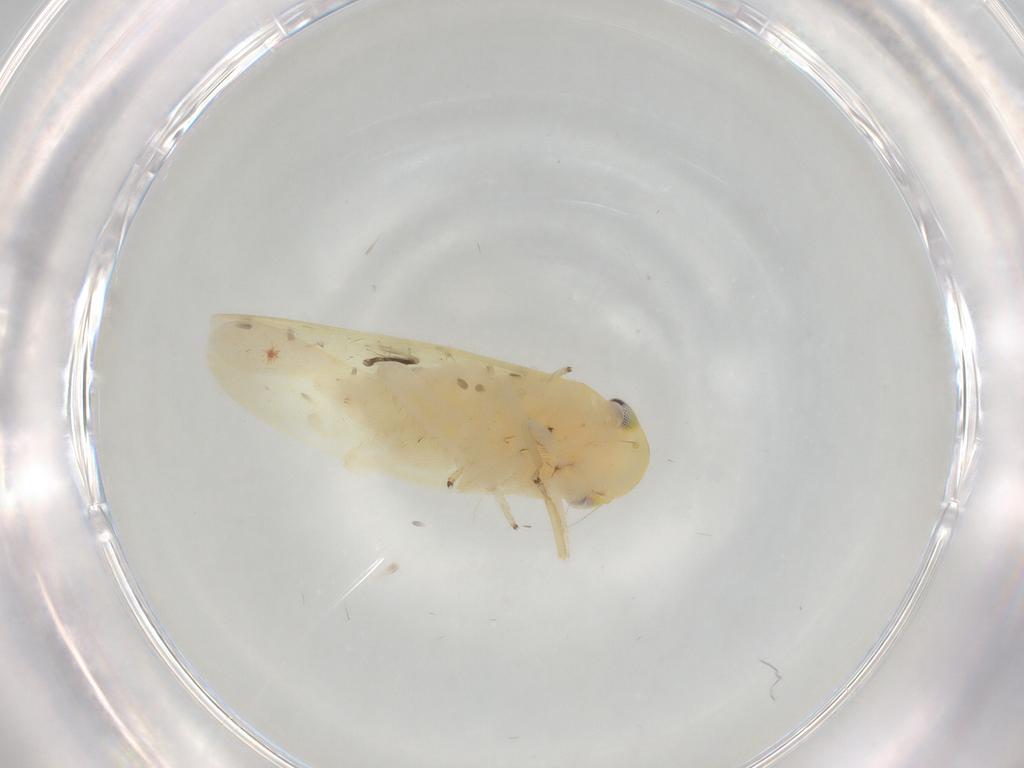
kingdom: Animalia
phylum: Arthropoda
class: Insecta
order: Hemiptera
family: Cicadellidae
